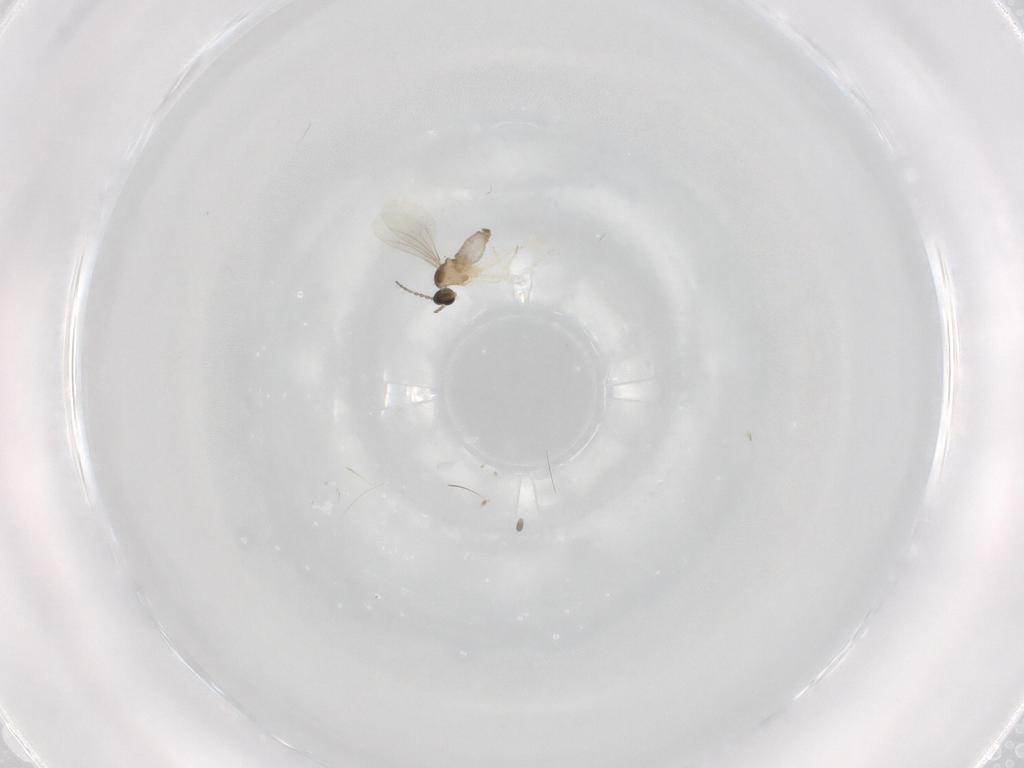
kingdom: Animalia
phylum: Arthropoda
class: Insecta
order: Diptera
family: Cecidomyiidae
